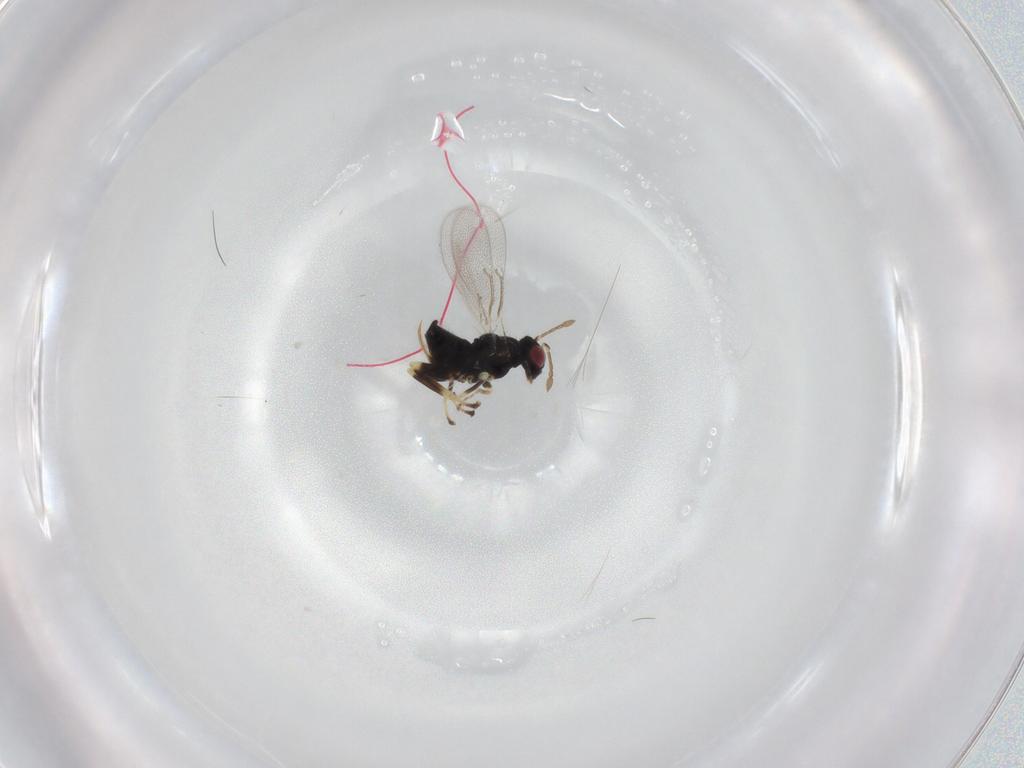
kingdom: Animalia
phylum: Arthropoda
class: Insecta
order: Hymenoptera
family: Eulophidae
